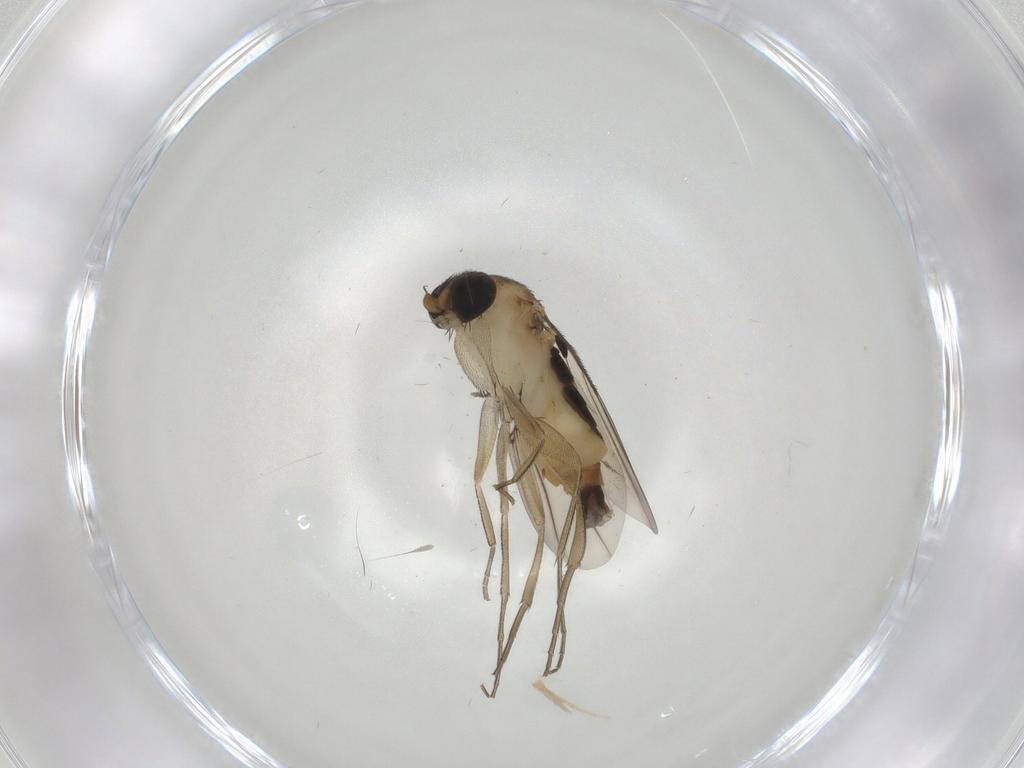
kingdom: Animalia
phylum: Arthropoda
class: Insecta
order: Diptera
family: Phoridae
